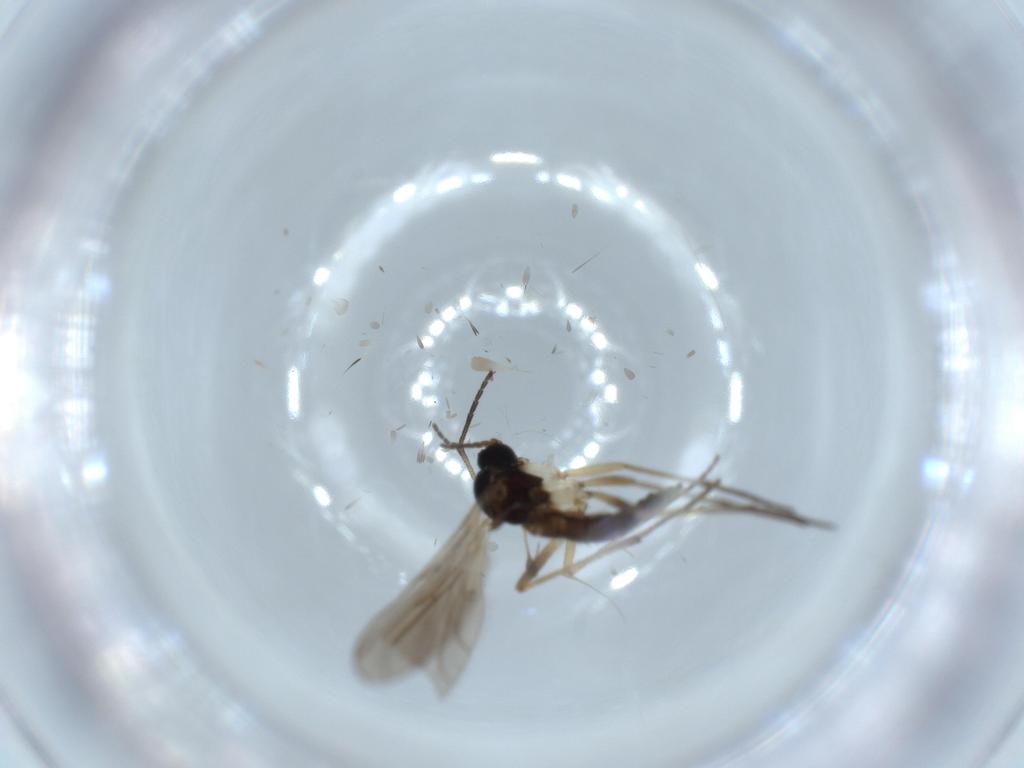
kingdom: Animalia
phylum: Arthropoda
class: Insecta
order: Diptera
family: Sciaridae
